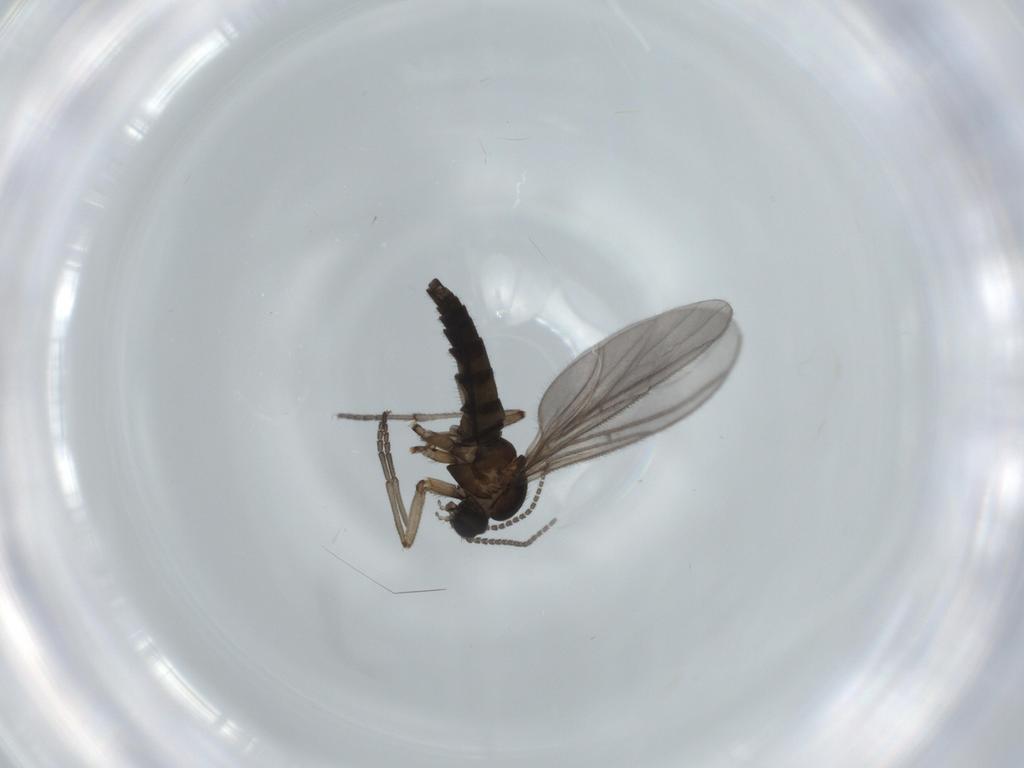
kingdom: Animalia
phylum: Arthropoda
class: Insecta
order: Diptera
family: Sciaridae
